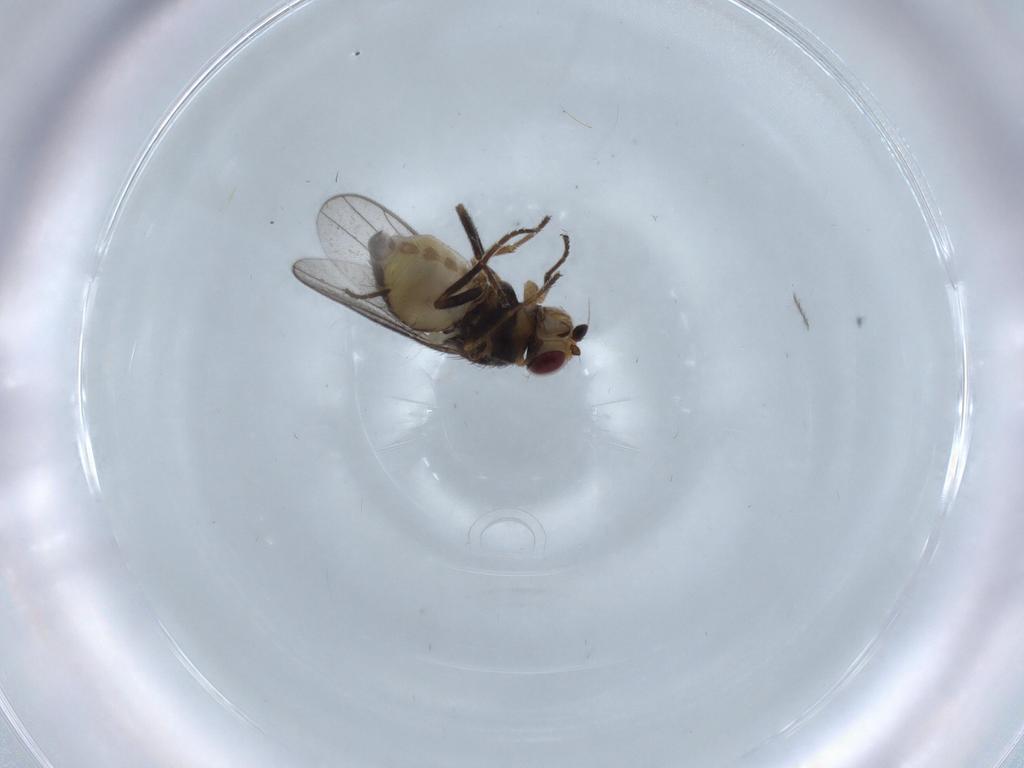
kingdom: Animalia
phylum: Arthropoda
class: Insecta
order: Diptera
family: Chloropidae
